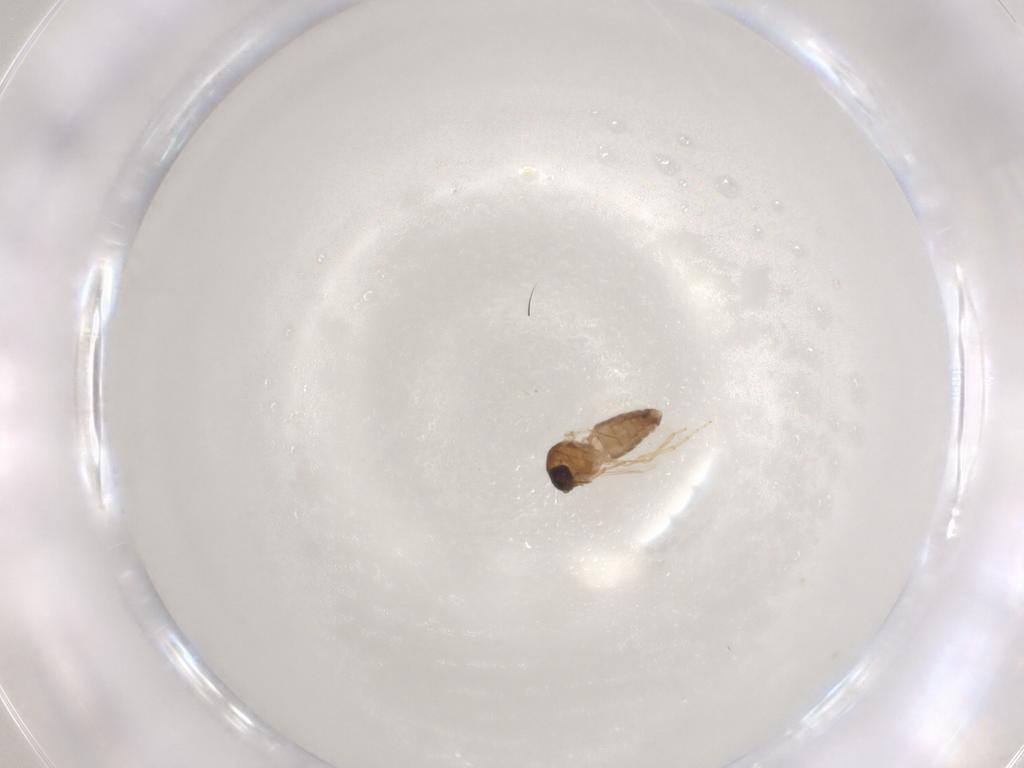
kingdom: Animalia
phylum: Arthropoda
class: Insecta
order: Diptera
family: Ceratopogonidae
